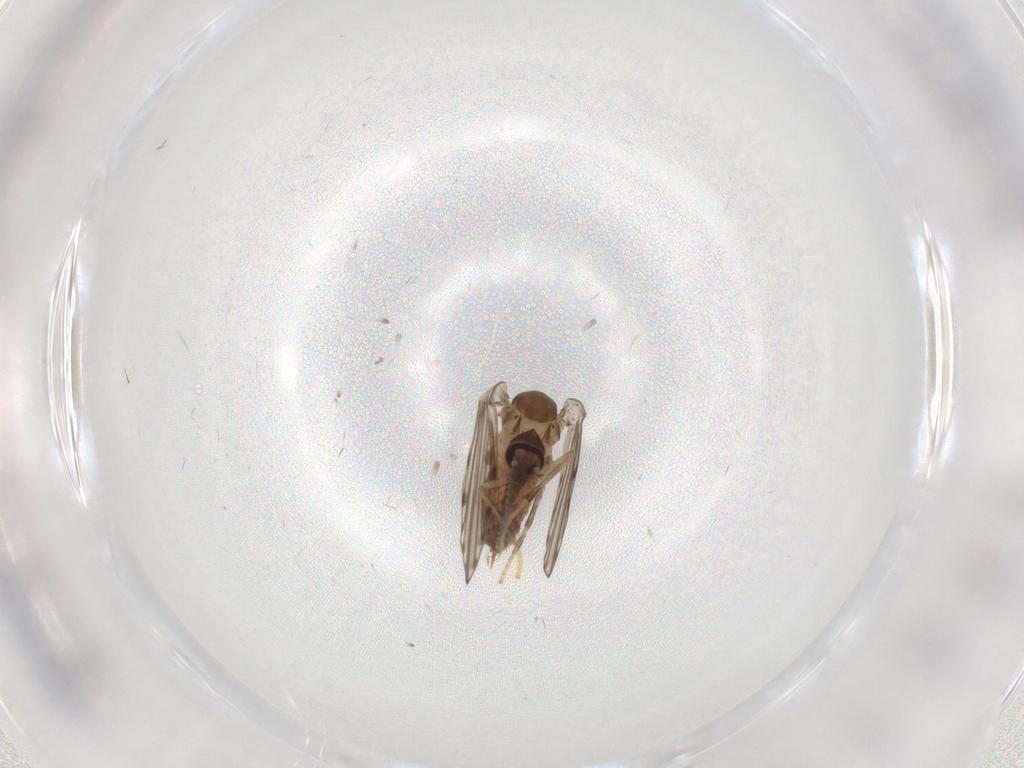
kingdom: Animalia
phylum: Arthropoda
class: Insecta
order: Diptera
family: Psychodidae
